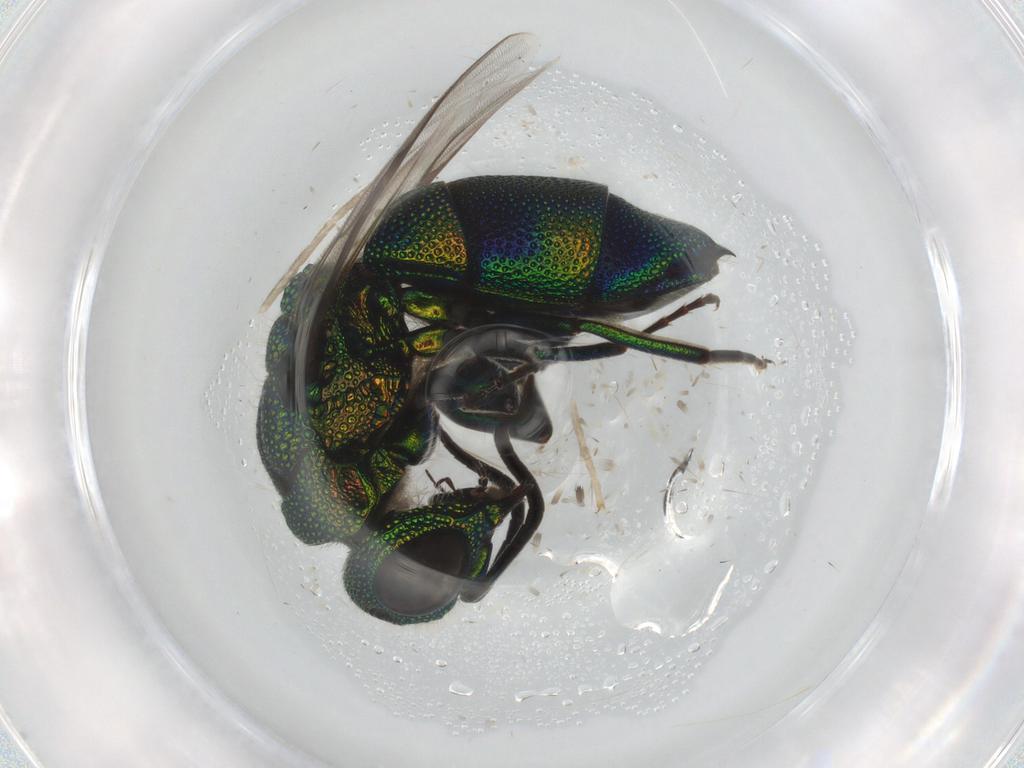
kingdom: Animalia
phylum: Arthropoda
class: Insecta
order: Hymenoptera
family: Chrysididae
